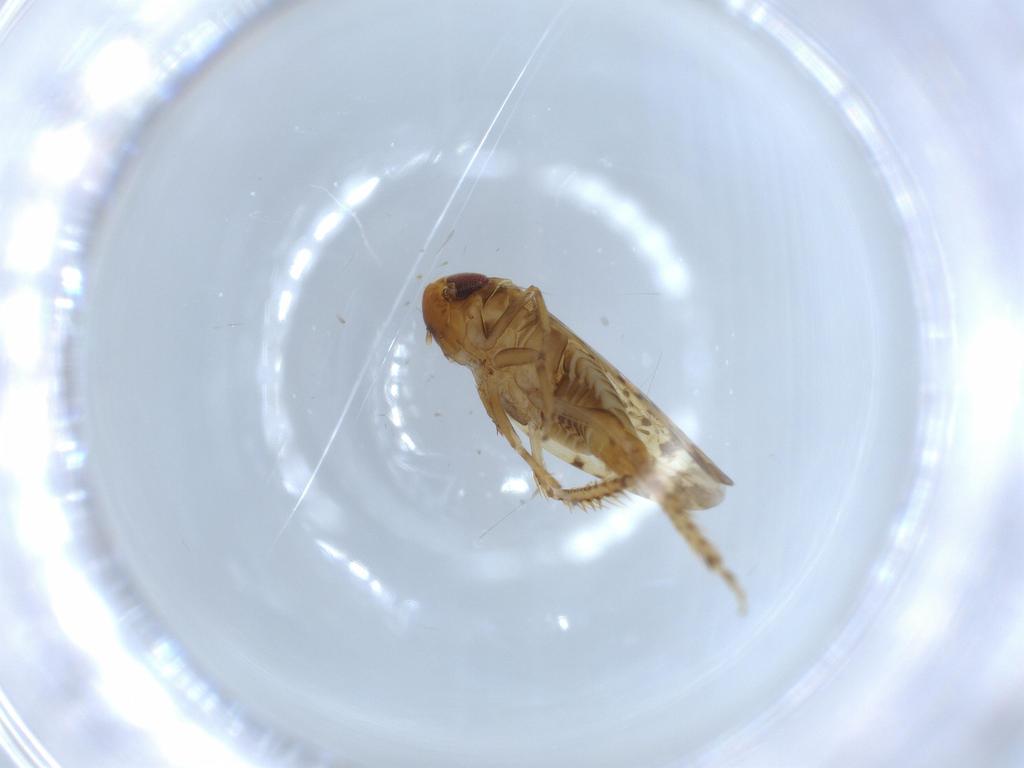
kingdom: Animalia
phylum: Arthropoda
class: Insecta
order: Hemiptera
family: Cicadellidae
